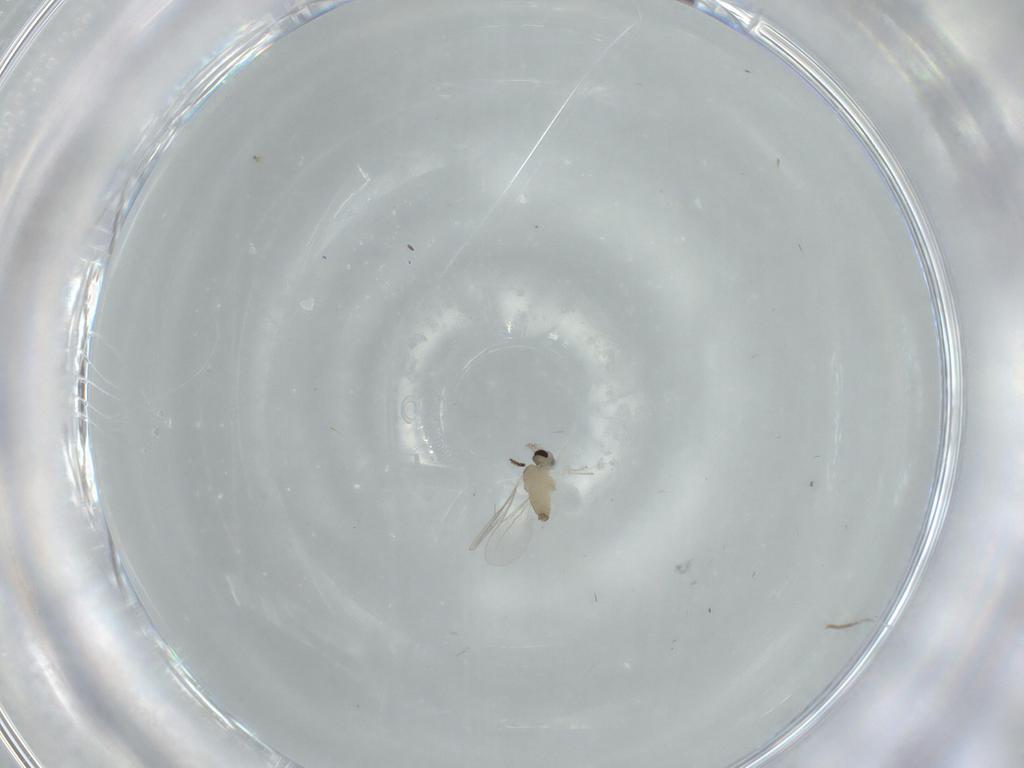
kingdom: Animalia
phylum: Arthropoda
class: Insecta
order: Diptera
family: Cecidomyiidae
